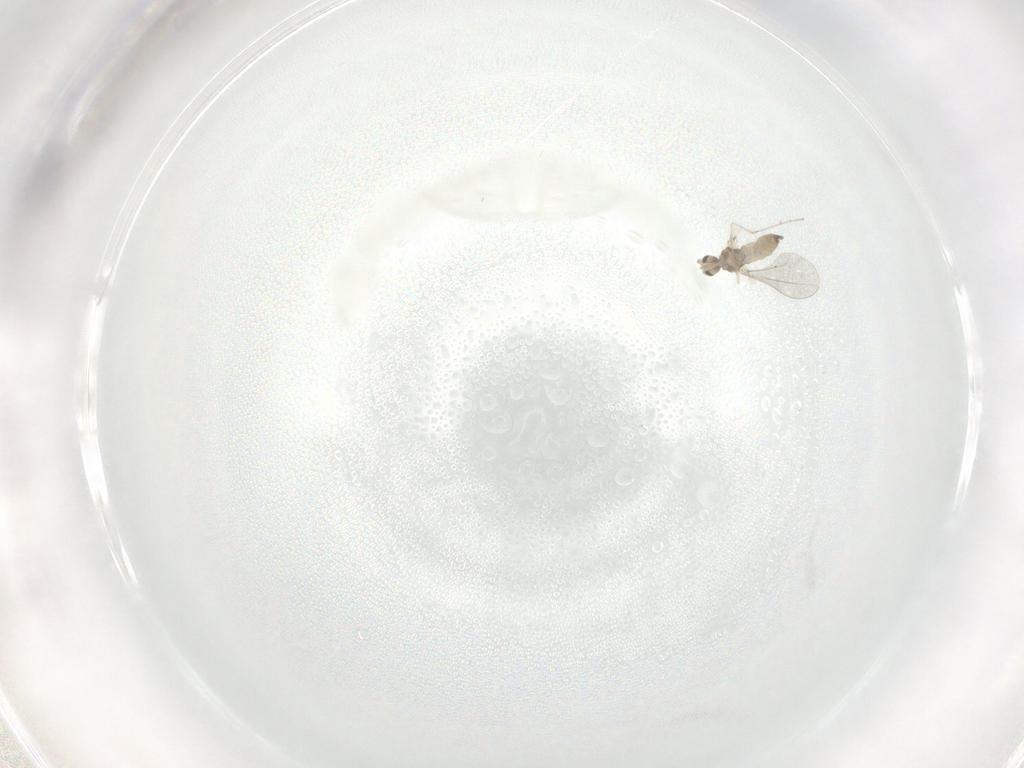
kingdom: Animalia
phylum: Arthropoda
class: Insecta
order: Diptera
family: Cecidomyiidae
